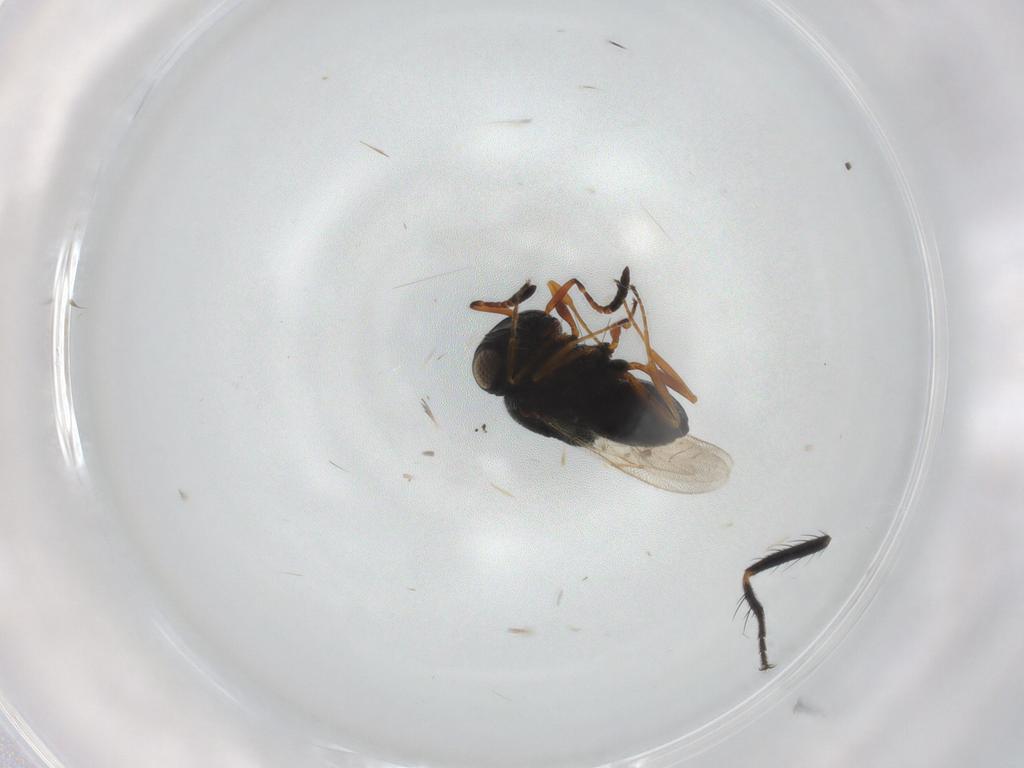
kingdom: Animalia
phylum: Arthropoda
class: Insecta
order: Coleoptera
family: Curculionidae
